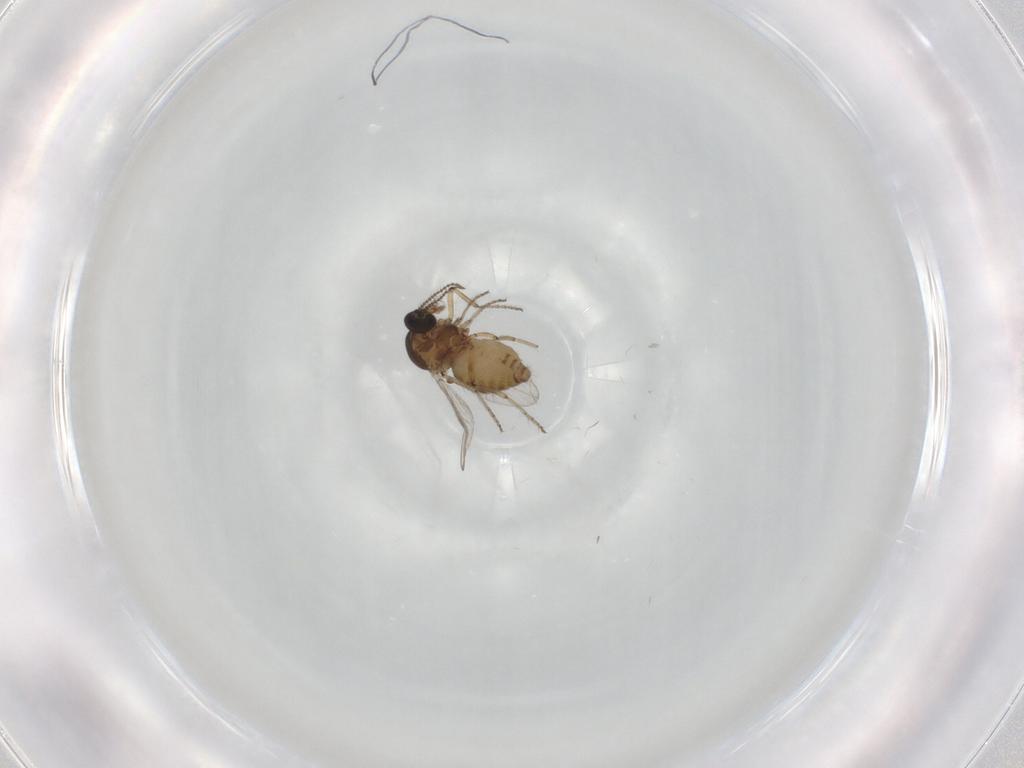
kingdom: Animalia
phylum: Arthropoda
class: Insecta
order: Diptera
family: Ceratopogonidae
